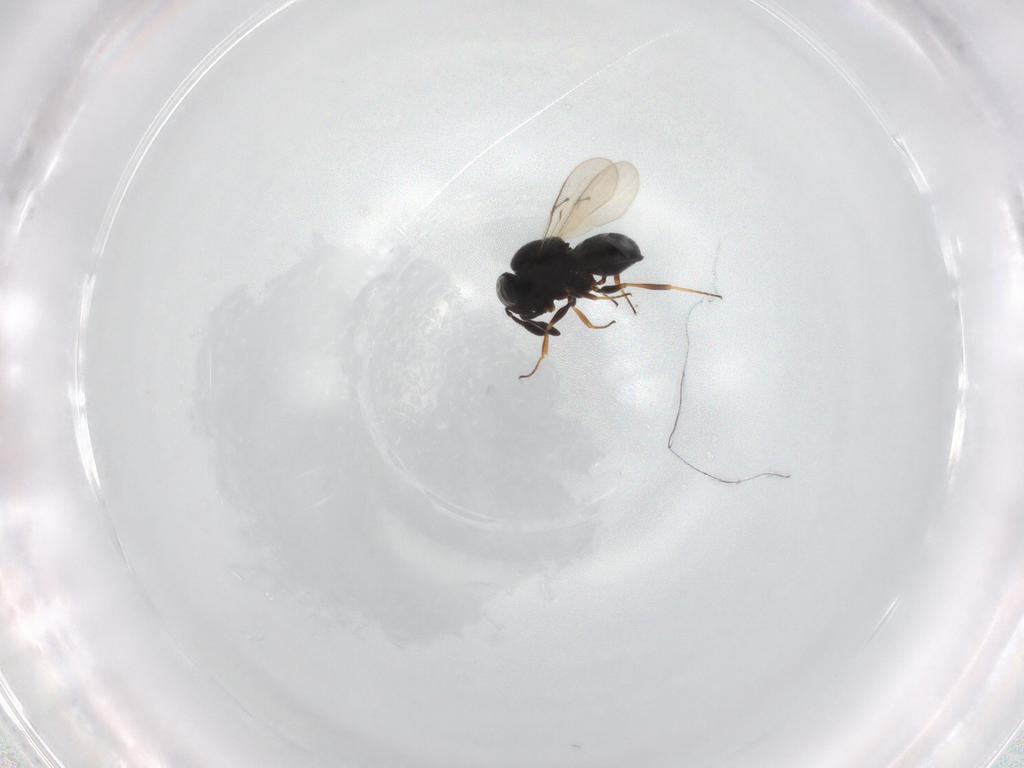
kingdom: Animalia
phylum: Arthropoda
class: Insecta
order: Hymenoptera
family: Scelionidae
